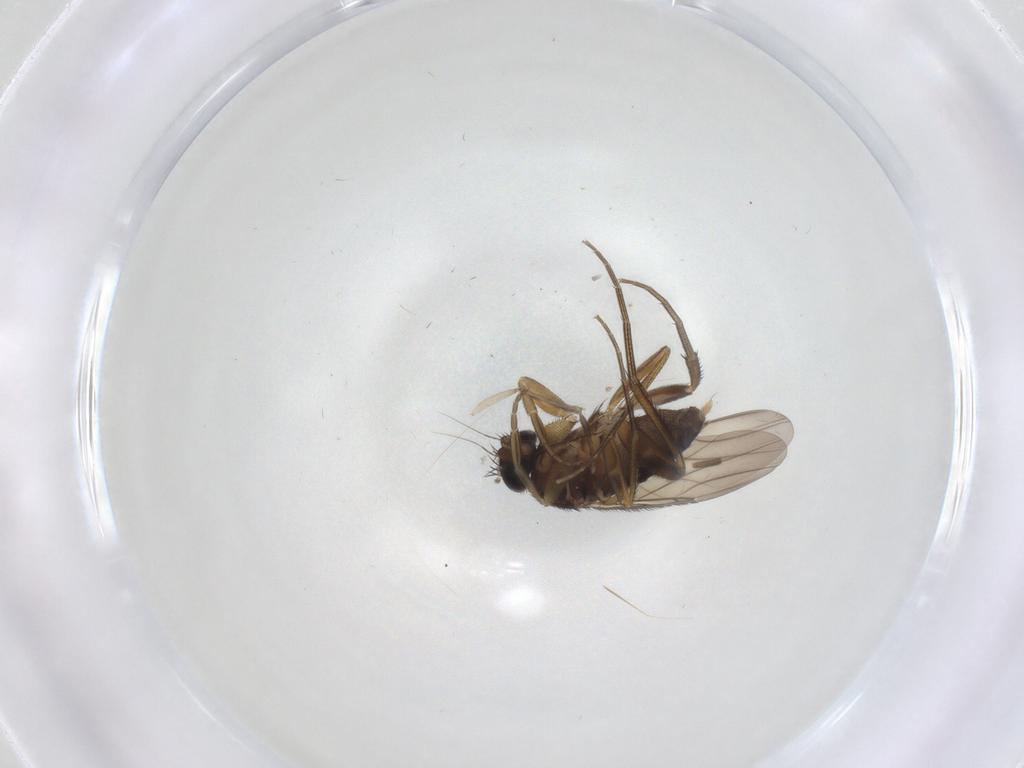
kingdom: Animalia
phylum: Arthropoda
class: Insecta
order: Diptera
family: Phoridae
